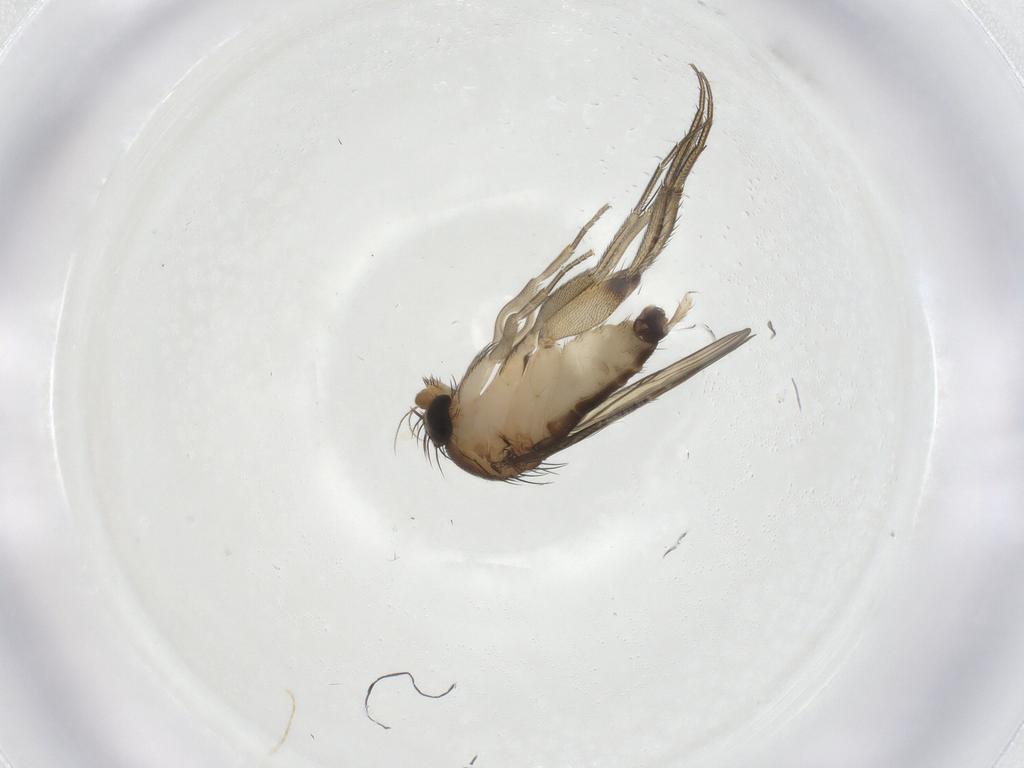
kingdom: Animalia
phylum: Arthropoda
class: Insecta
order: Diptera
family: Phoridae
